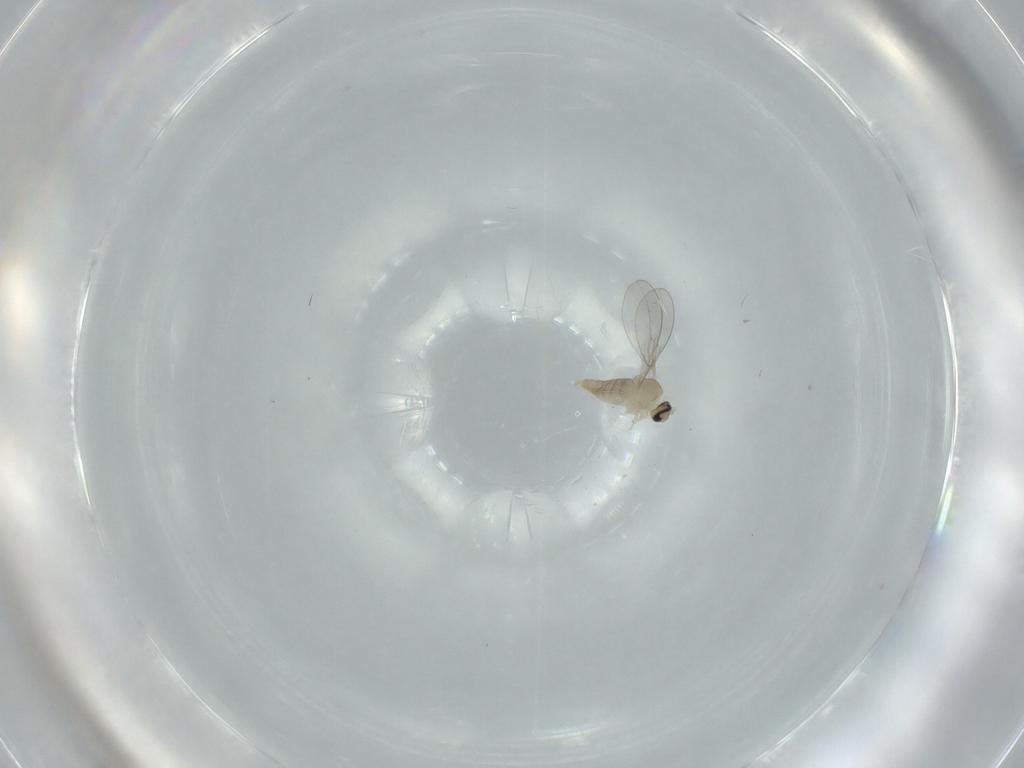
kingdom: Animalia
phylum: Arthropoda
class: Insecta
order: Diptera
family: Cecidomyiidae
